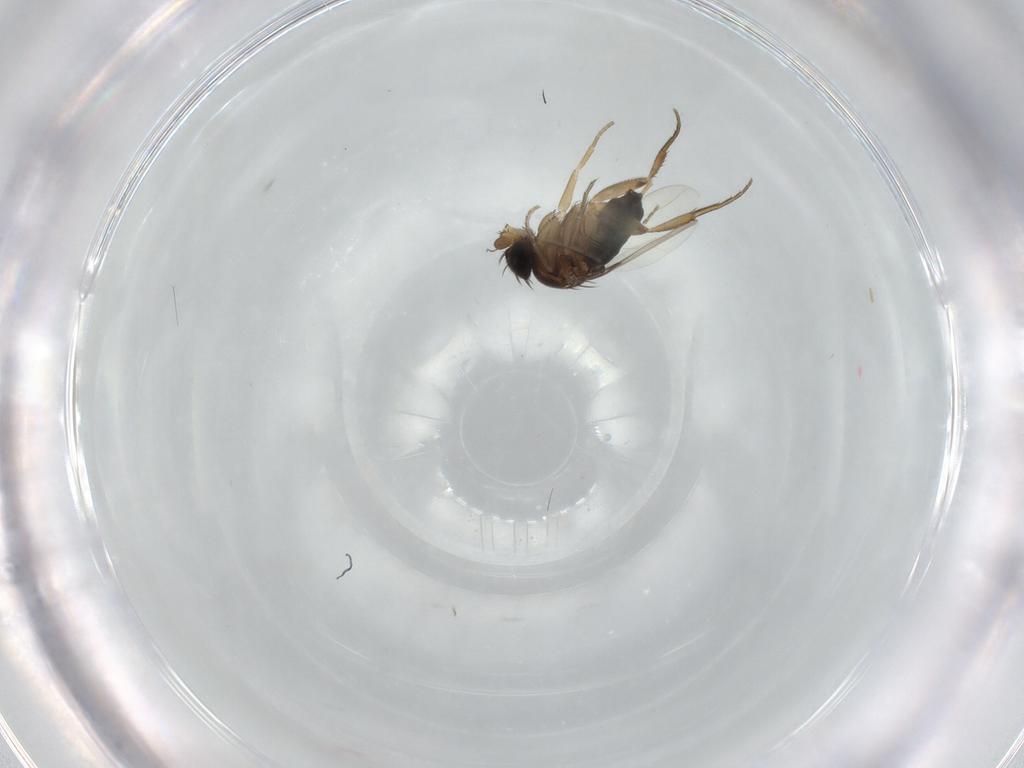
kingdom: Animalia
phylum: Arthropoda
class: Insecta
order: Diptera
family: Phoridae
